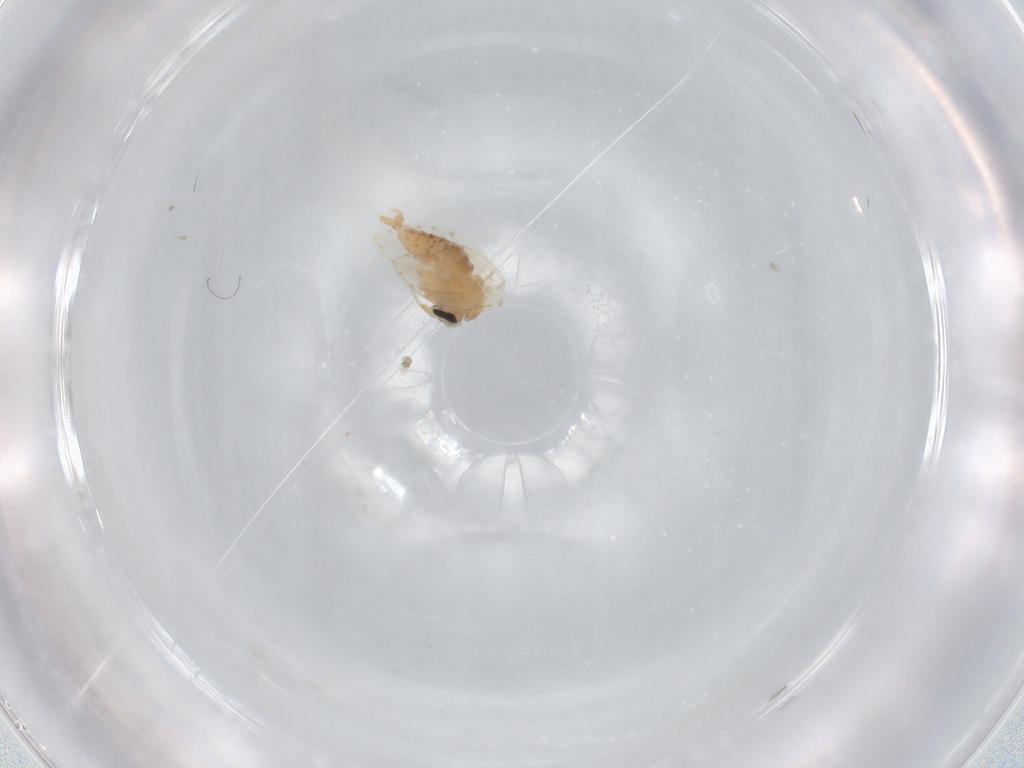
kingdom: Animalia
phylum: Arthropoda
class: Insecta
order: Diptera
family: Psychodidae
